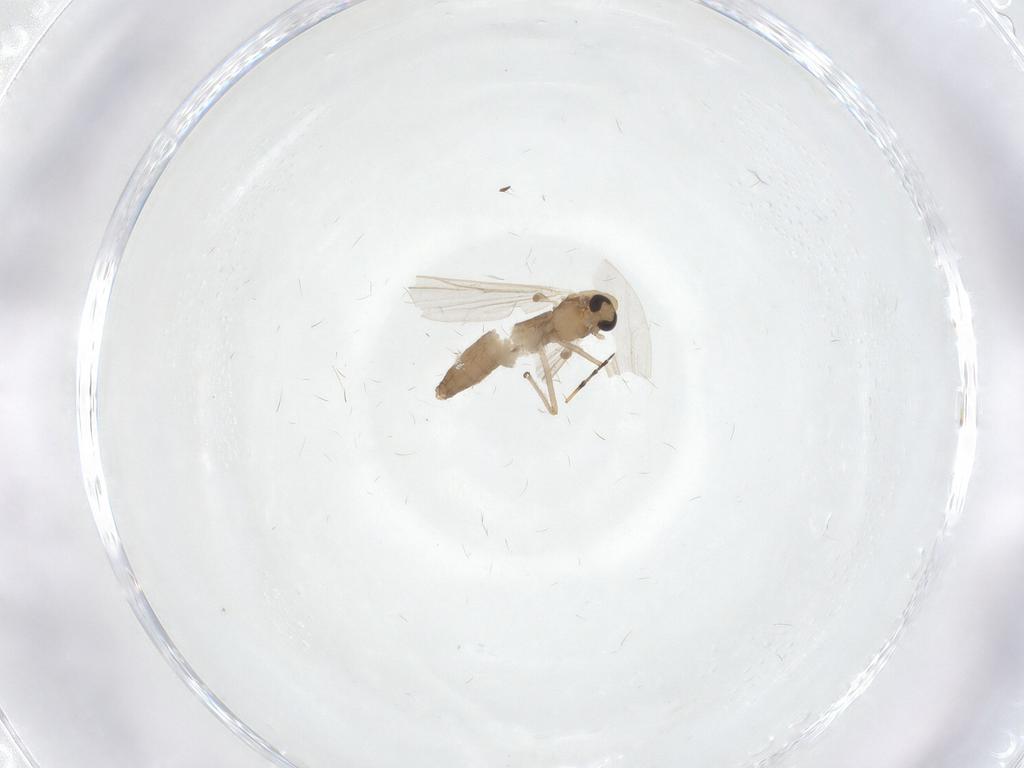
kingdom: Animalia
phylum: Arthropoda
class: Insecta
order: Diptera
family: Chironomidae
